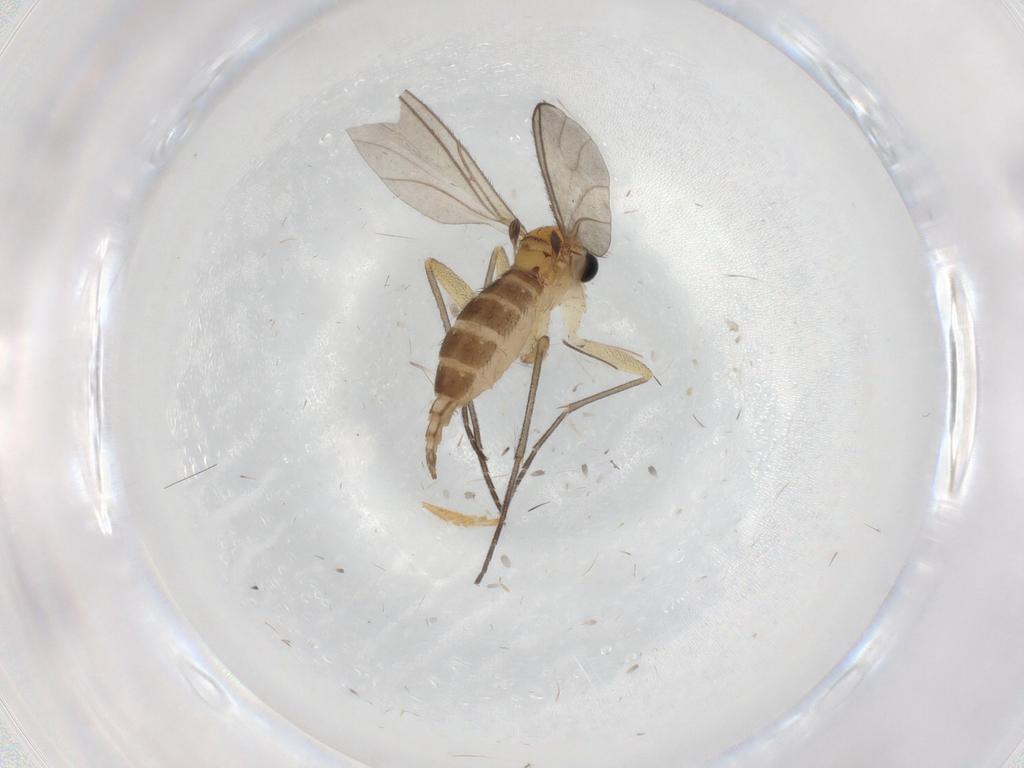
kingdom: Animalia
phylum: Arthropoda
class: Insecta
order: Diptera
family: Sciaridae
